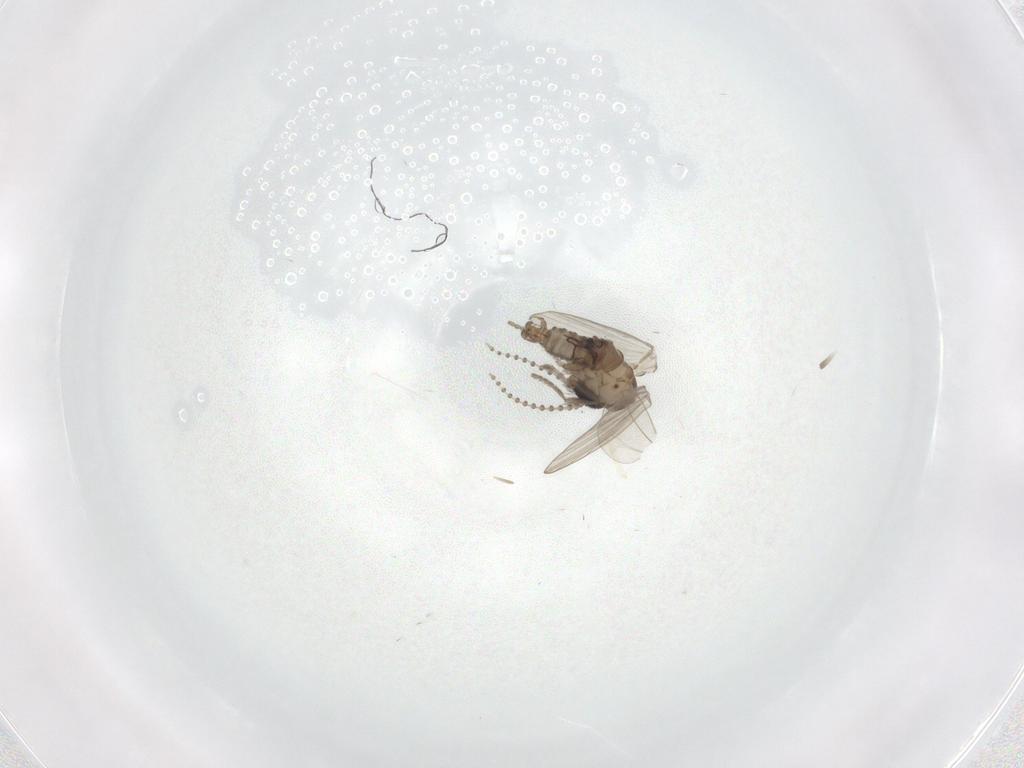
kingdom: Animalia
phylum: Arthropoda
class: Insecta
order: Diptera
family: Psychodidae
